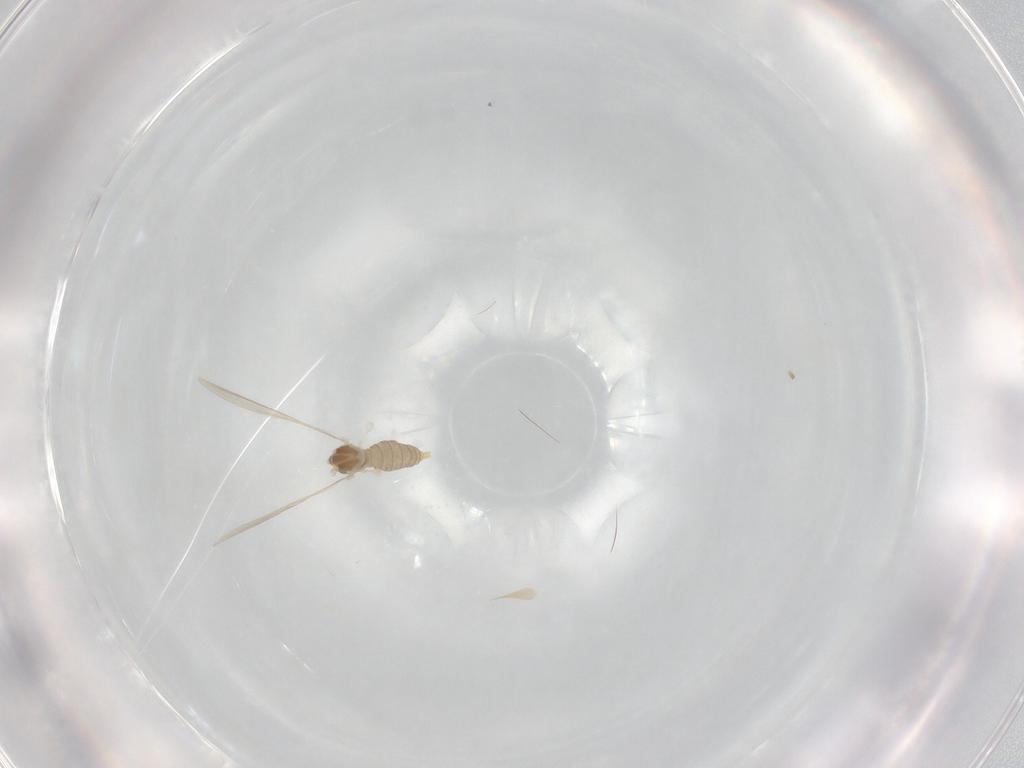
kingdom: Animalia
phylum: Arthropoda
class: Insecta
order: Diptera
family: Cecidomyiidae
